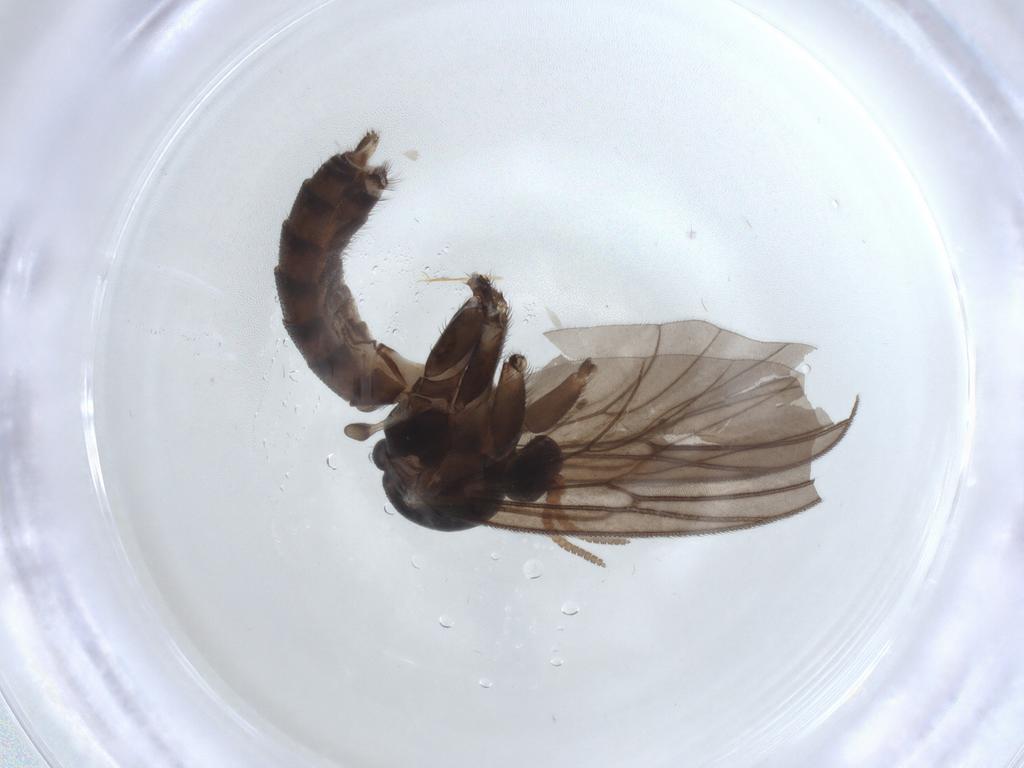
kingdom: Animalia
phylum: Arthropoda
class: Insecta
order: Diptera
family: Mycetophilidae
